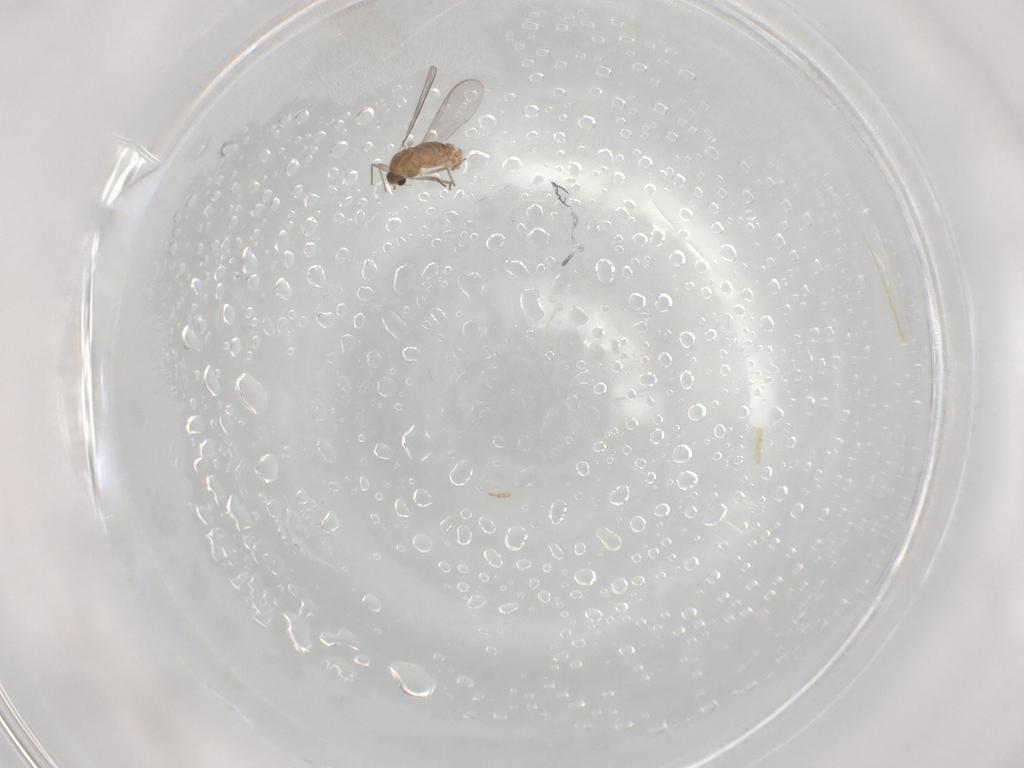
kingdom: Animalia
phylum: Arthropoda
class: Insecta
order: Diptera
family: Chironomidae
